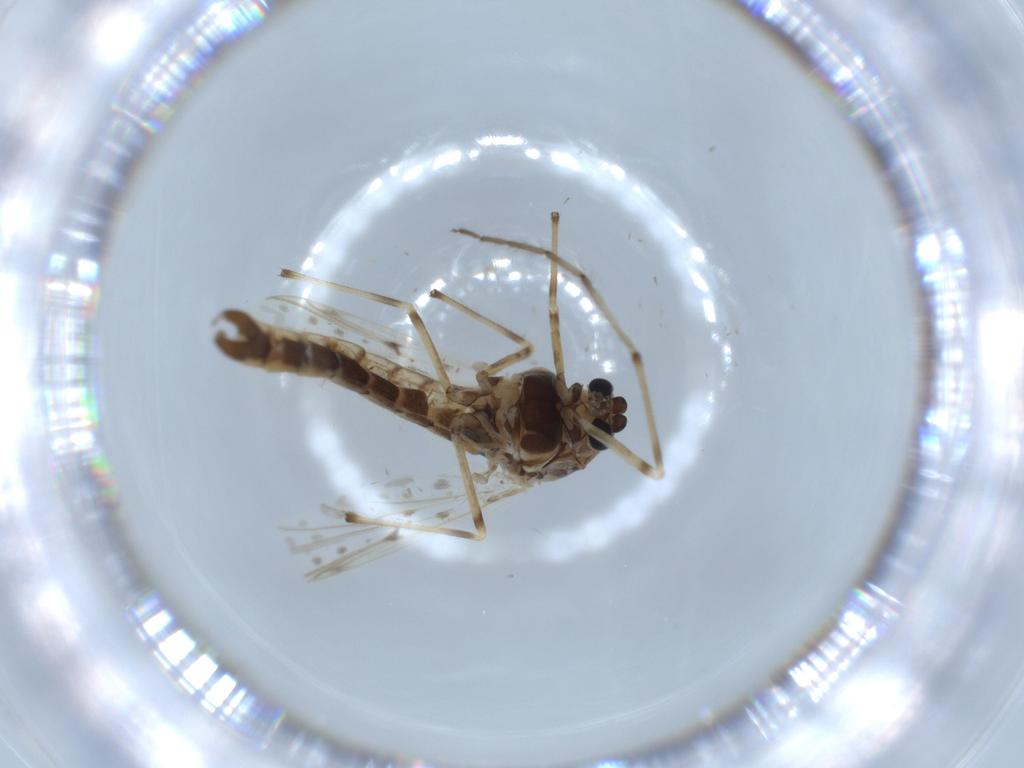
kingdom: Animalia
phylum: Arthropoda
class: Insecta
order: Diptera
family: Chironomidae
